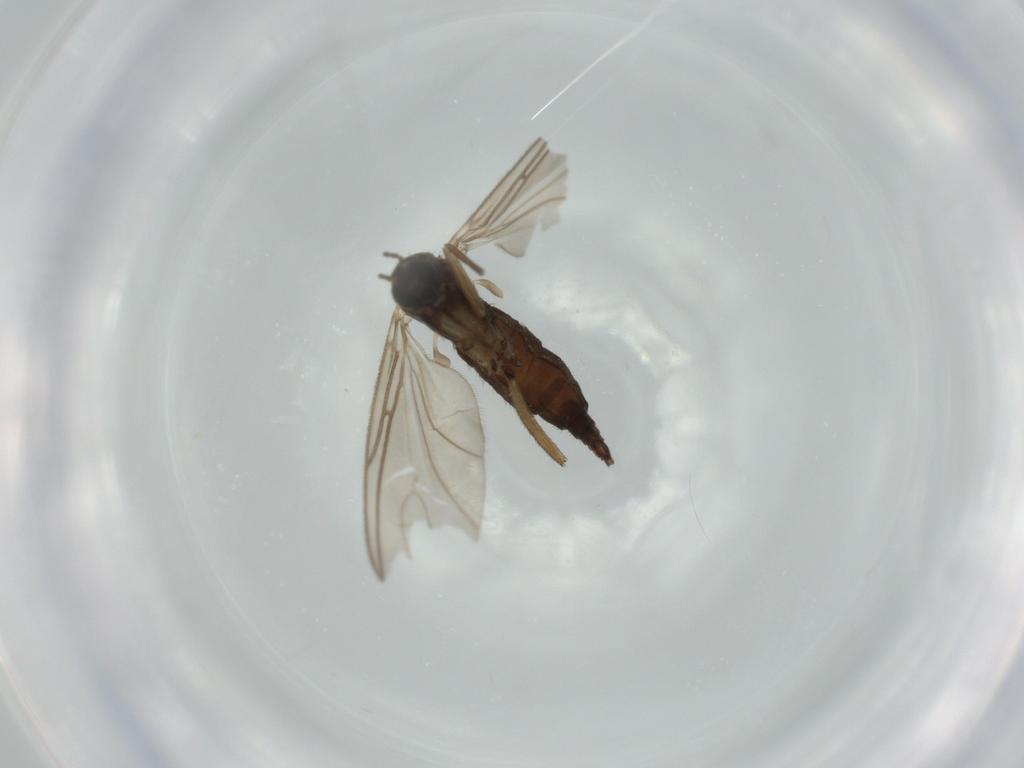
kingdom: Animalia
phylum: Arthropoda
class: Insecta
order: Diptera
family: Sciaridae
